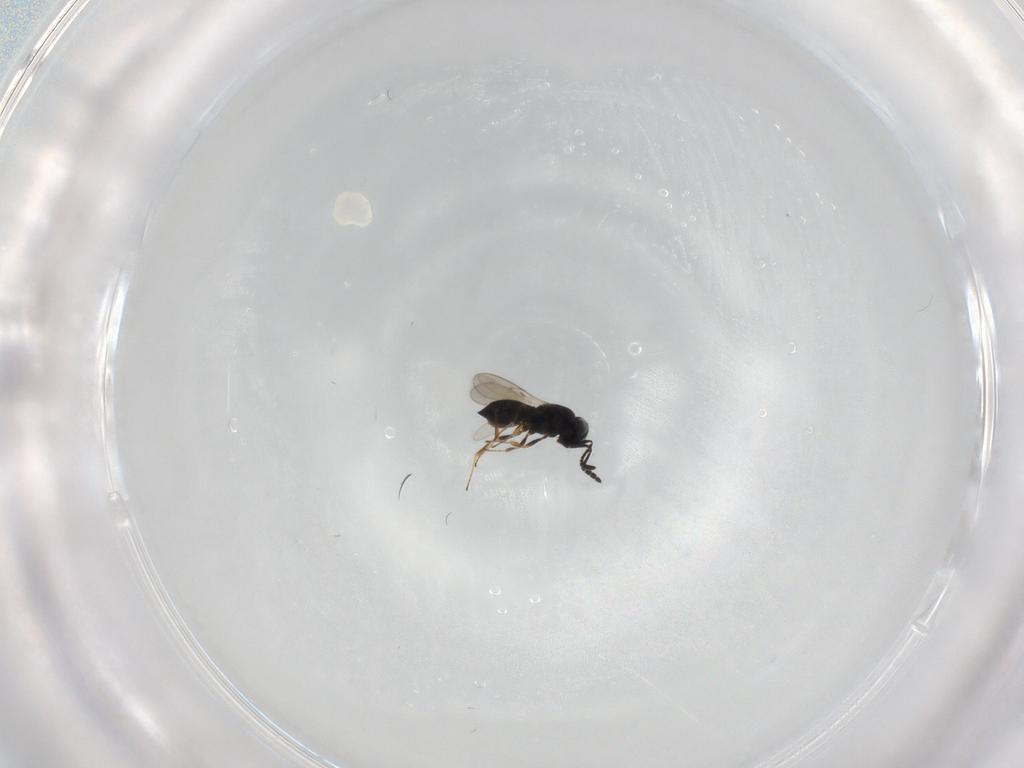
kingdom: Animalia
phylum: Arthropoda
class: Insecta
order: Hymenoptera
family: Scelionidae
